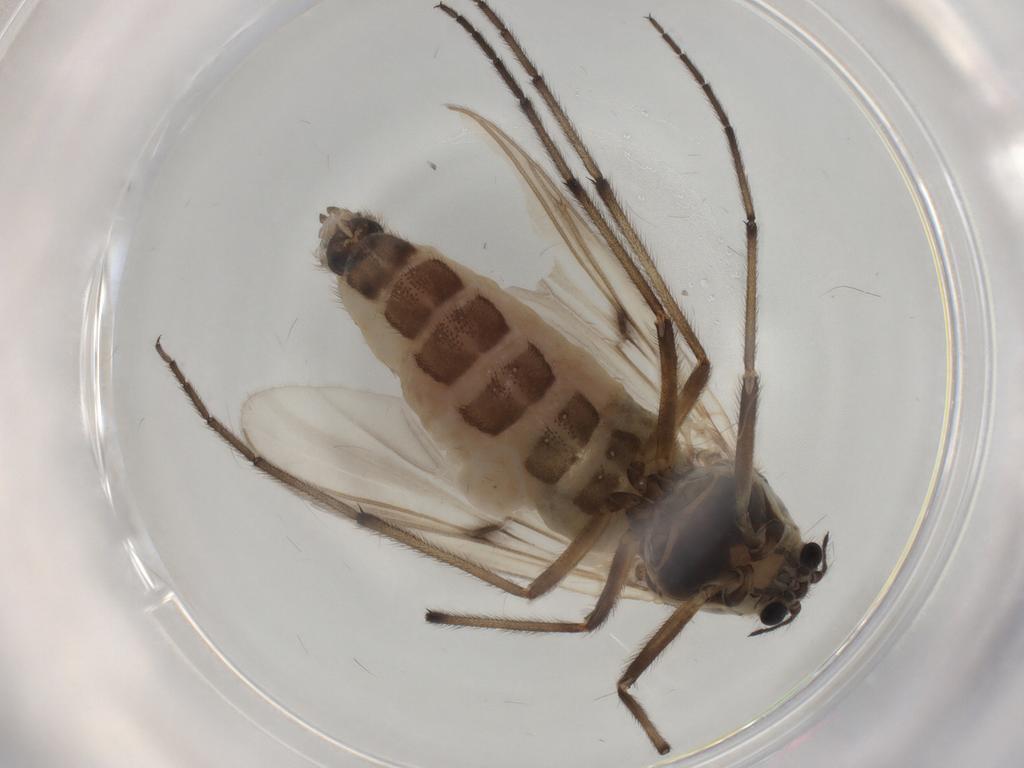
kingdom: Animalia
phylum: Arthropoda
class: Insecta
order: Diptera
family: Chironomidae
